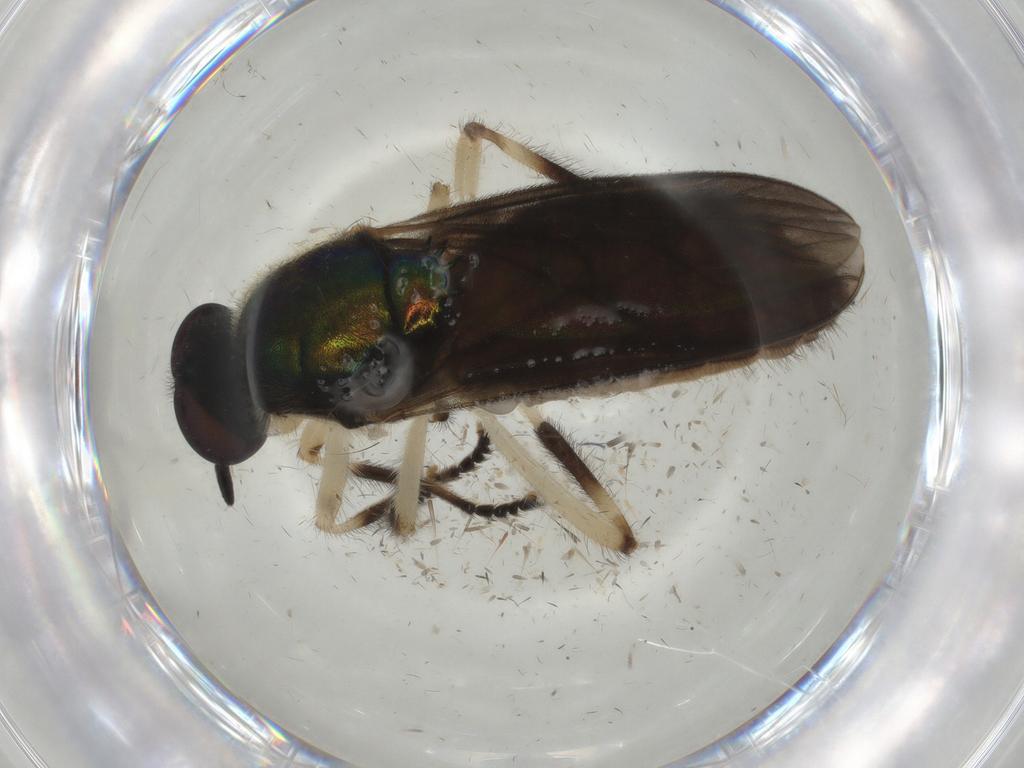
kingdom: Animalia
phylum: Arthropoda
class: Insecta
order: Diptera
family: Stratiomyidae
